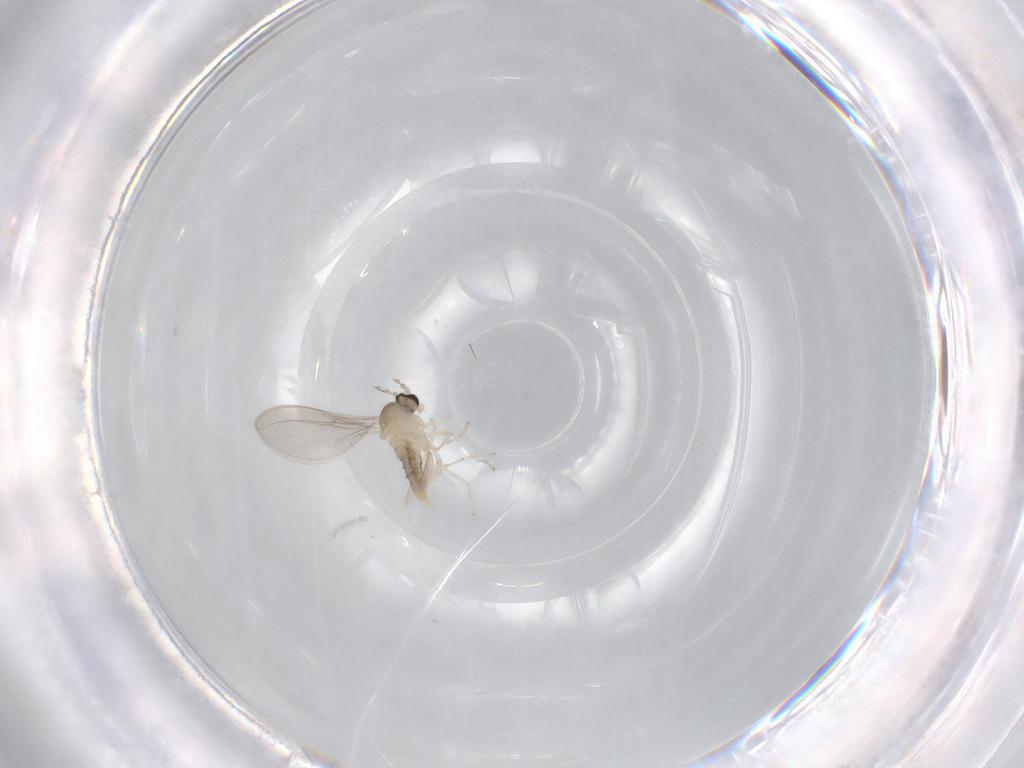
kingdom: Animalia
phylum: Arthropoda
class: Insecta
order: Diptera
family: Cecidomyiidae
